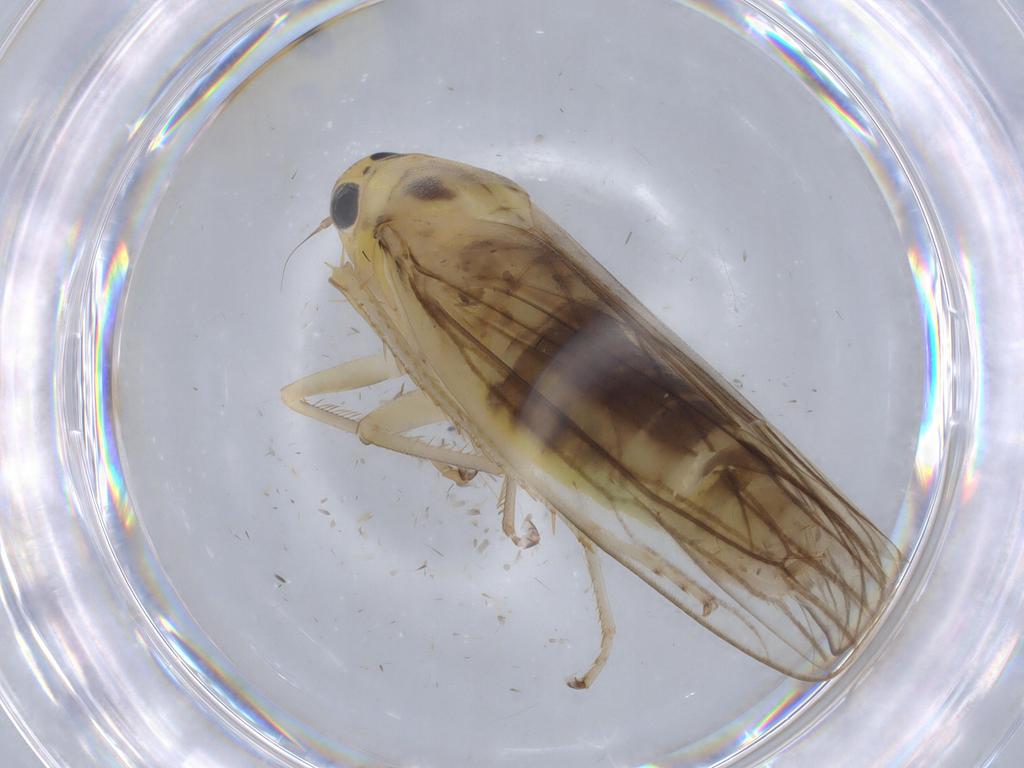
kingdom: Animalia
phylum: Arthropoda
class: Insecta
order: Hemiptera
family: Cicadellidae
